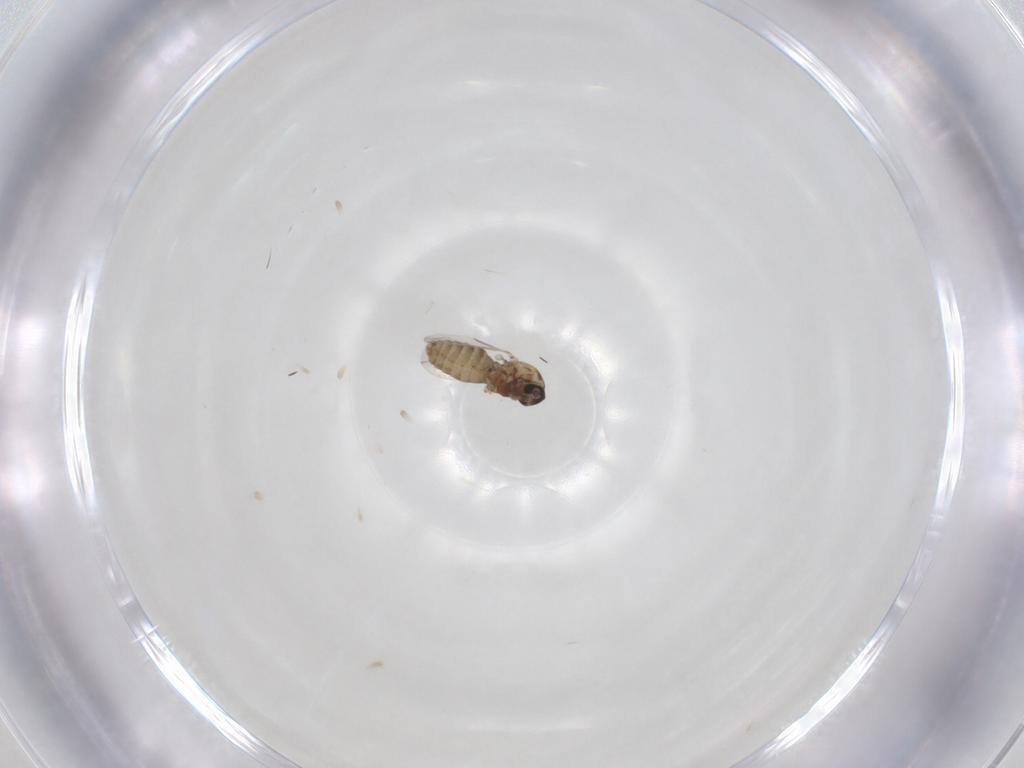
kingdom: Animalia
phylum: Arthropoda
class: Insecta
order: Diptera
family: Ceratopogonidae
